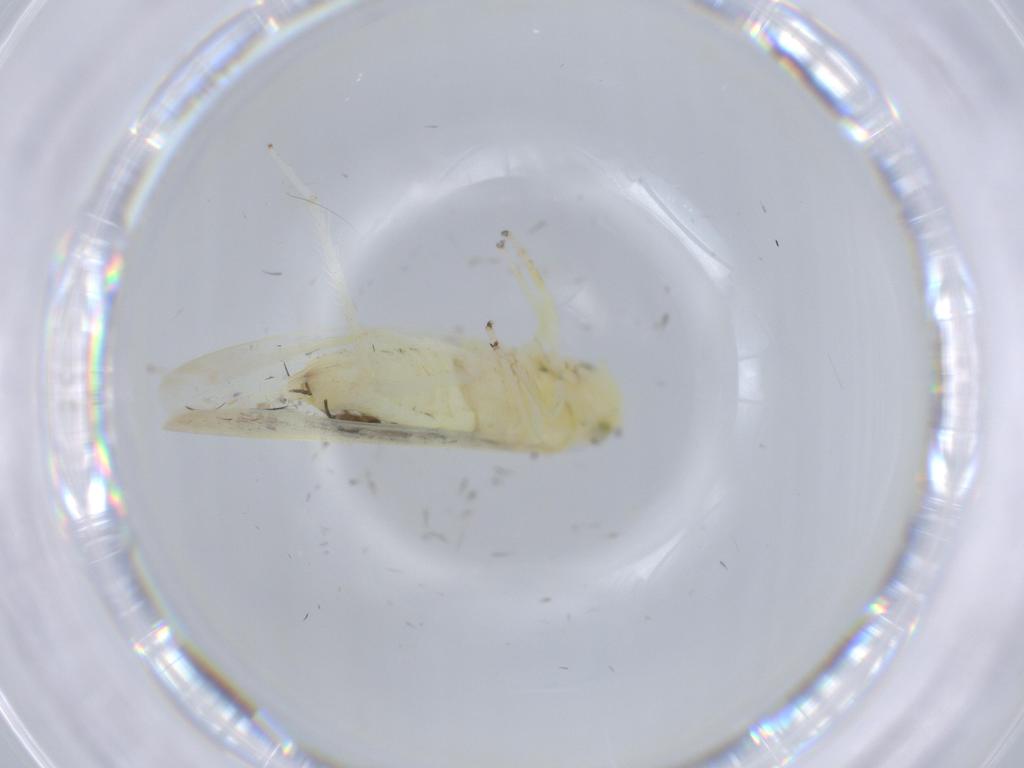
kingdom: Animalia
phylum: Arthropoda
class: Insecta
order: Hemiptera
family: Cicadellidae
